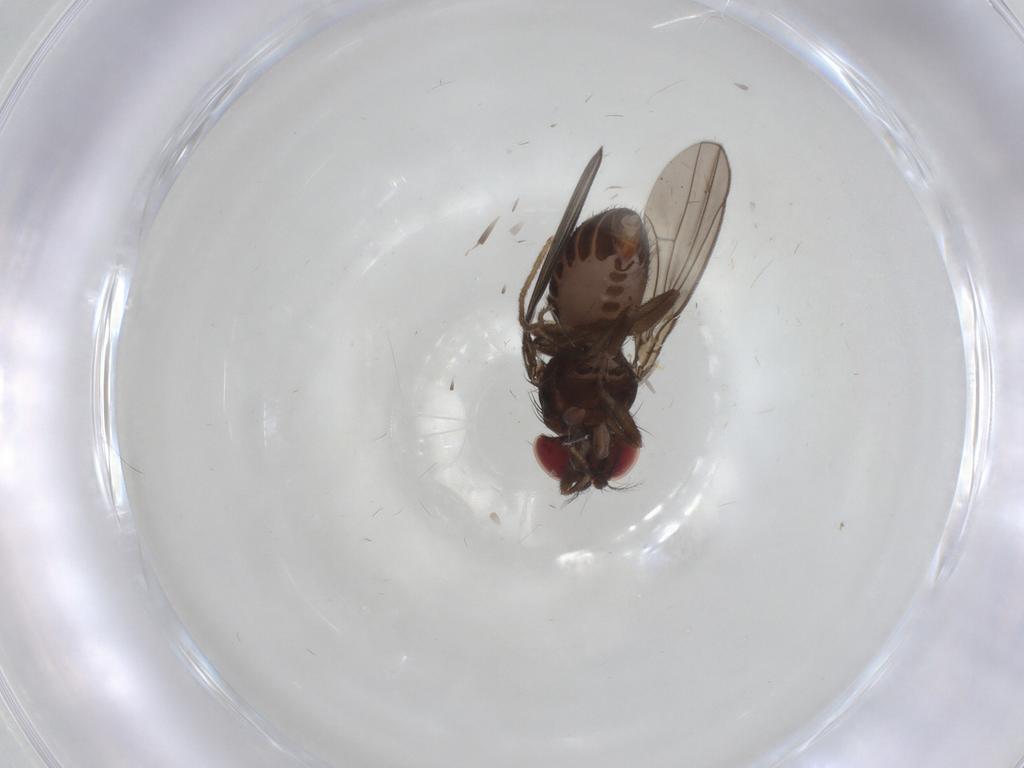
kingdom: Animalia
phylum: Arthropoda
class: Insecta
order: Diptera
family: Drosophilidae
